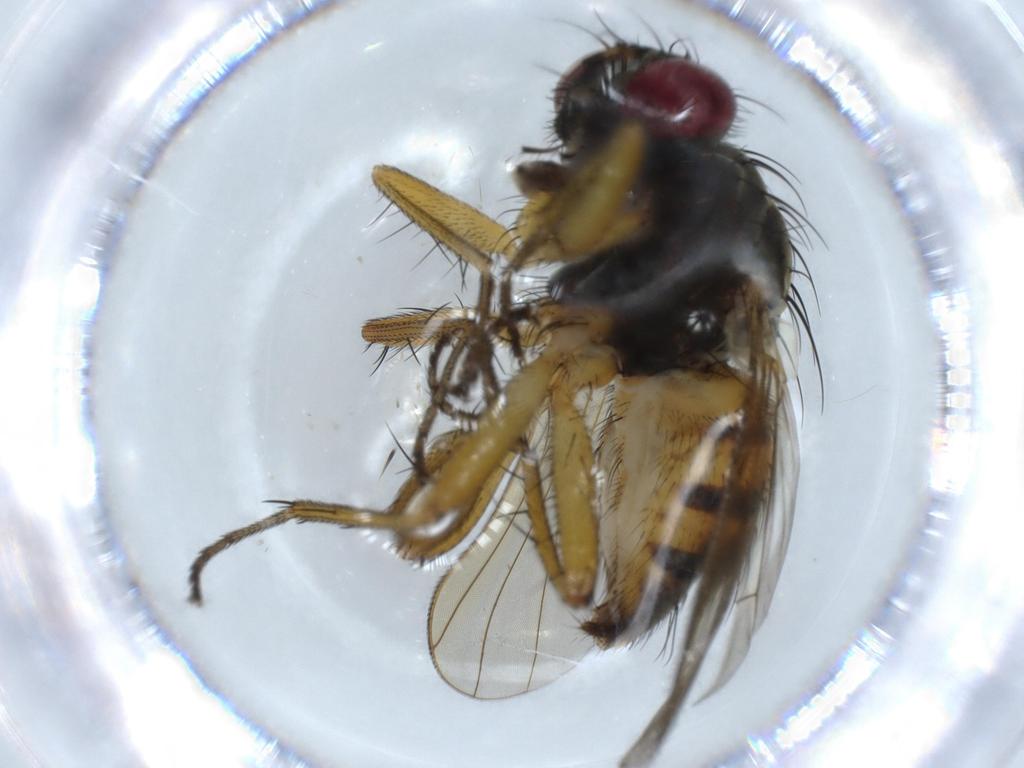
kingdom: Animalia
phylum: Arthropoda
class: Insecta
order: Diptera
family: Muscidae
